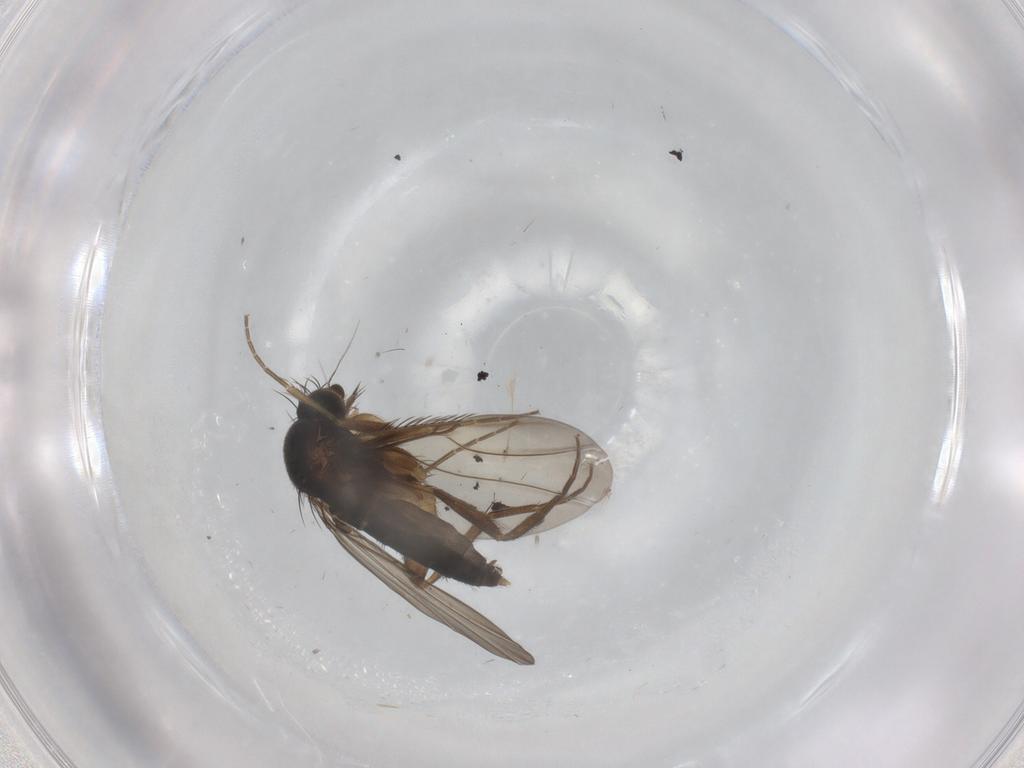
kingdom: Animalia
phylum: Arthropoda
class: Insecta
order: Diptera
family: Phoridae
